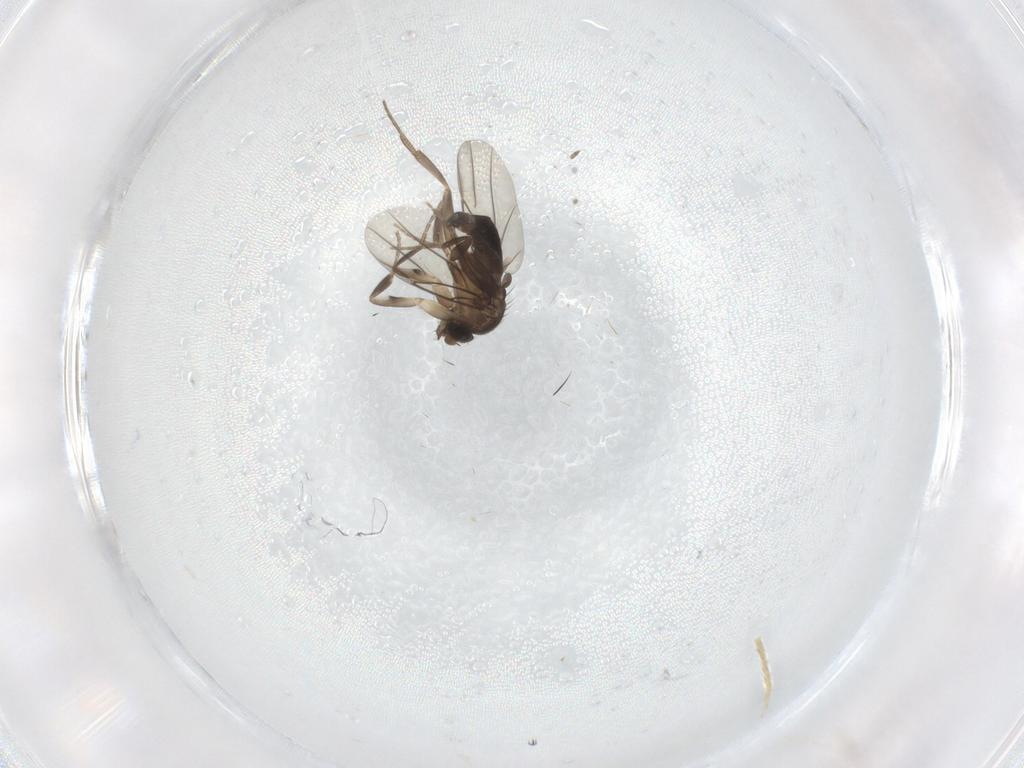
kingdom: Animalia
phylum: Arthropoda
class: Insecta
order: Diptera
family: Phoridae
